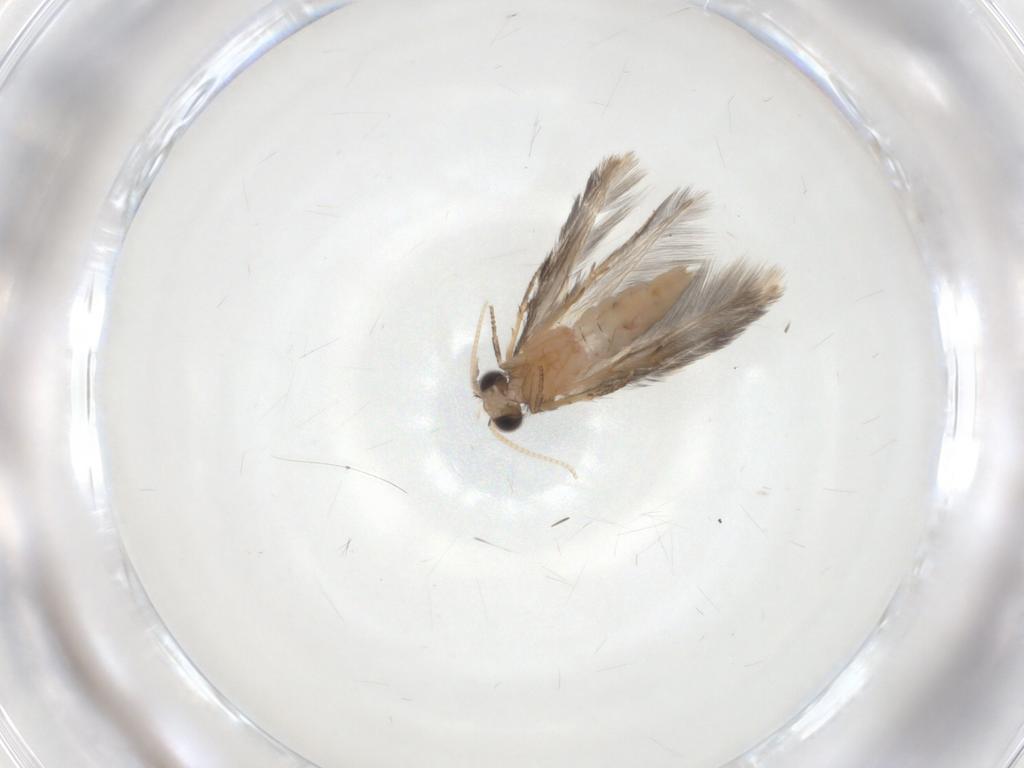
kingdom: Animalia
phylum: Arthropoda
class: Insecta
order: Trichoptera
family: Hydroptilidae
